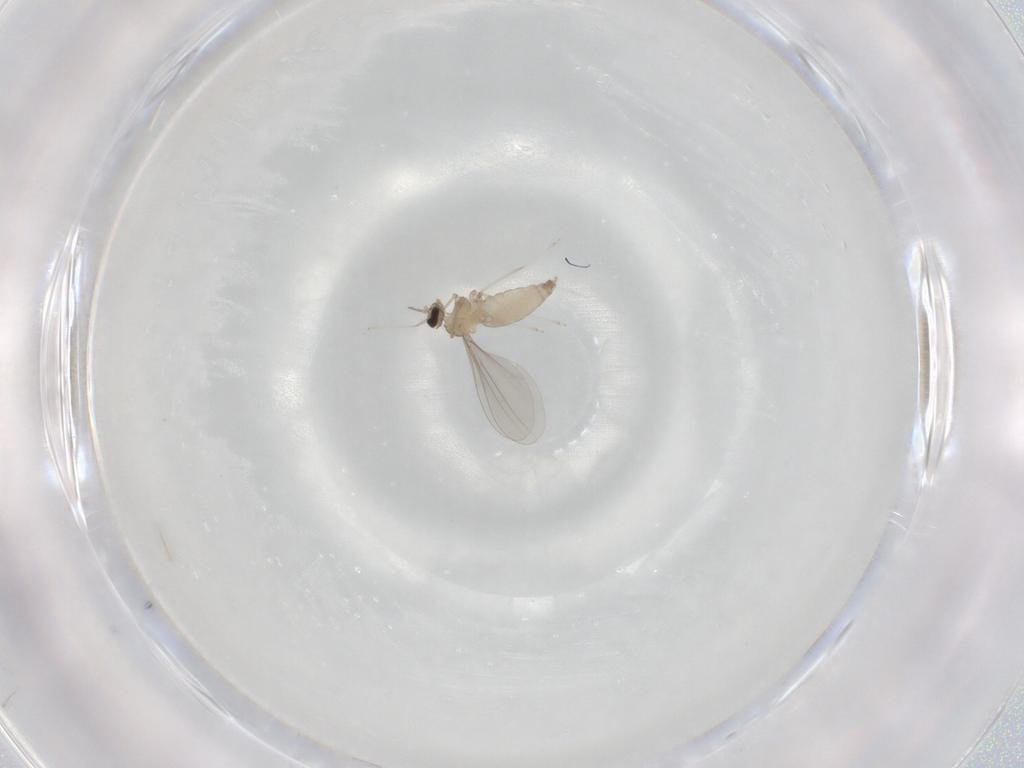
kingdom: Animalia
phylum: Arthropoda
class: Insecta
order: Diptera
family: Cecidomyiidae
